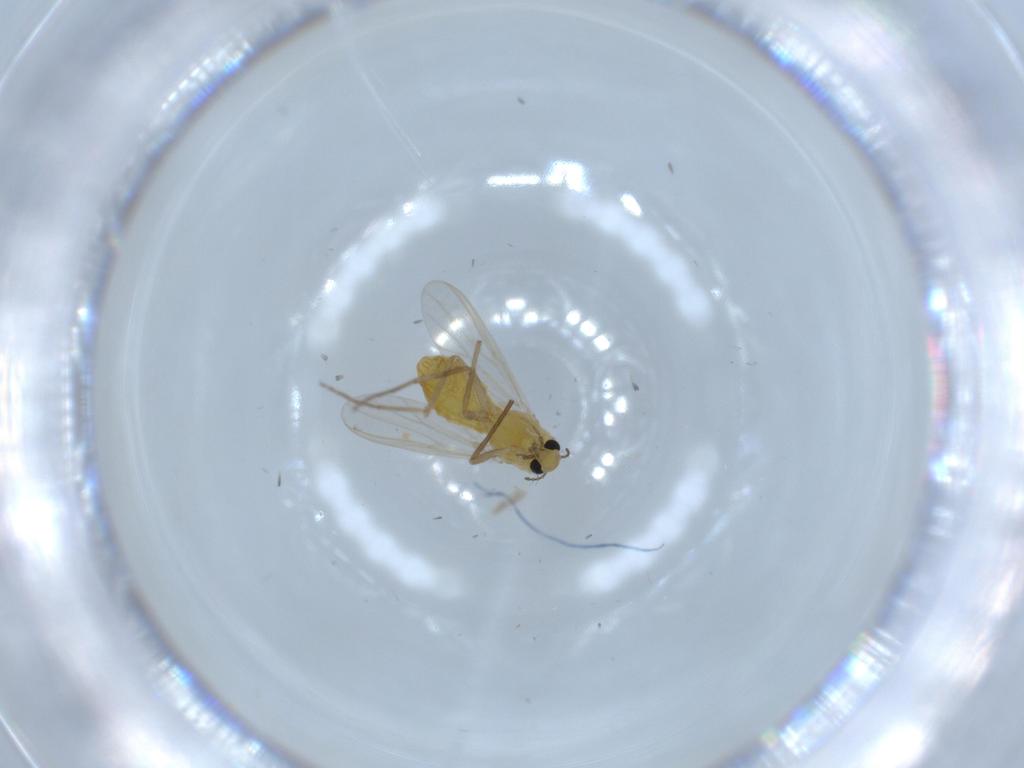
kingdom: Animalia
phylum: Arthropoda
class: Insecta
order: Diptera
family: Chironomidae
